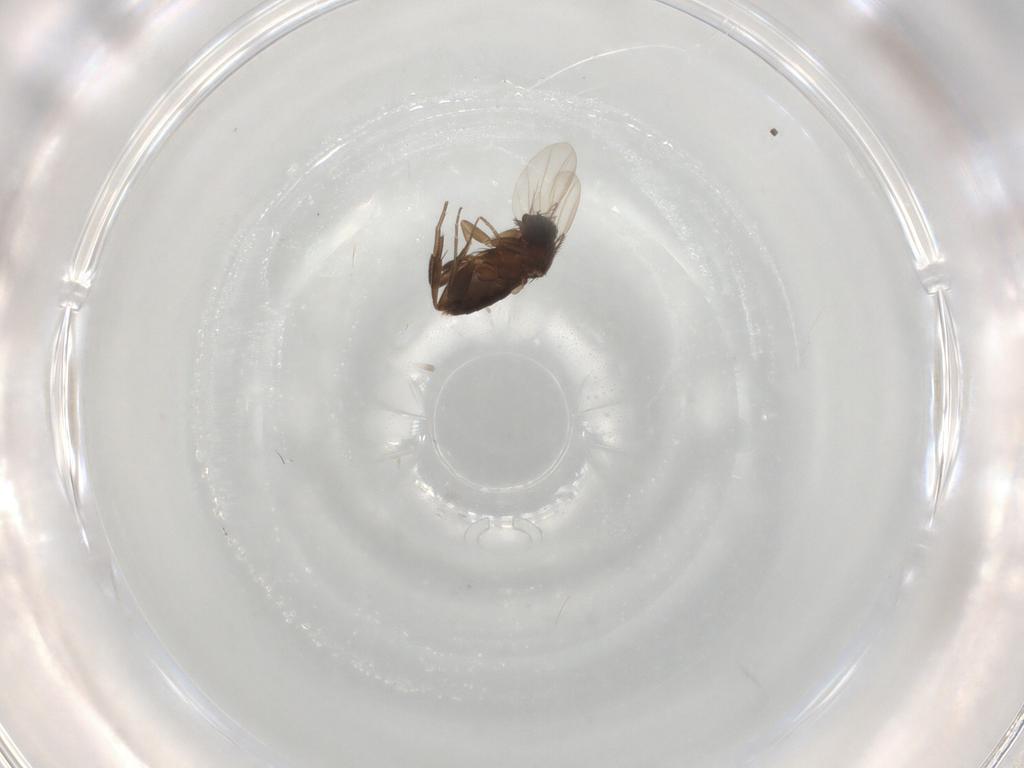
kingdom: Animalia
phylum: Arthropoda
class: Insecta
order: Diptera
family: Phoridae
